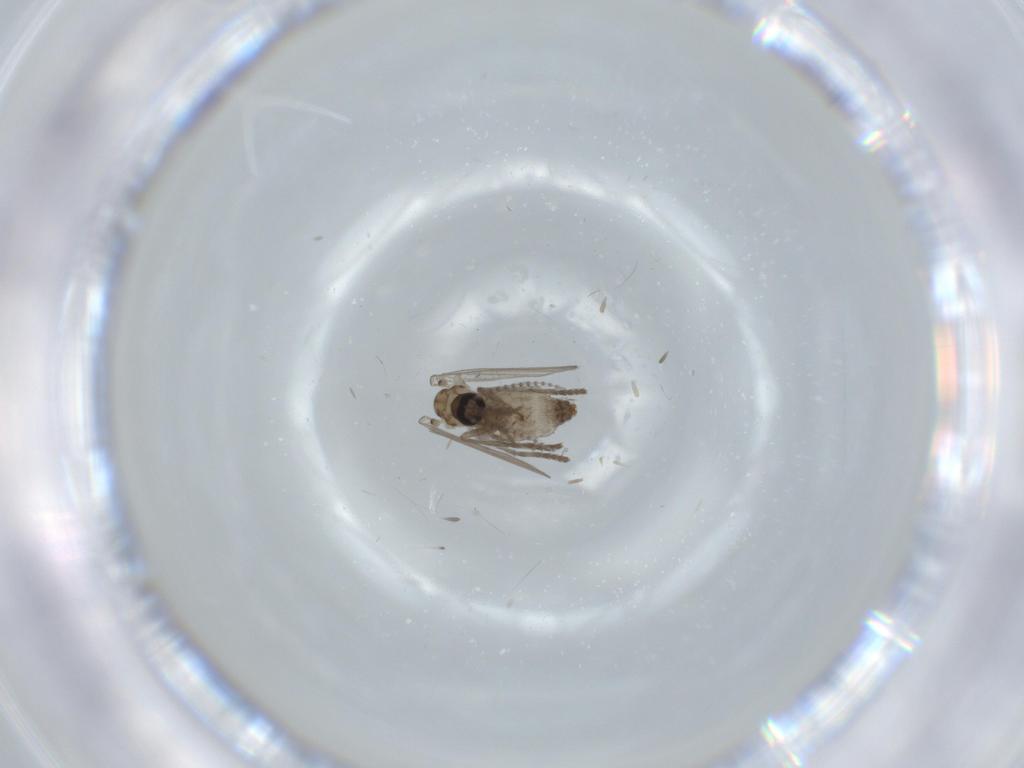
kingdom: Animalia
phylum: Arthropoda
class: Insecta
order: Diptera
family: Psychodidae
